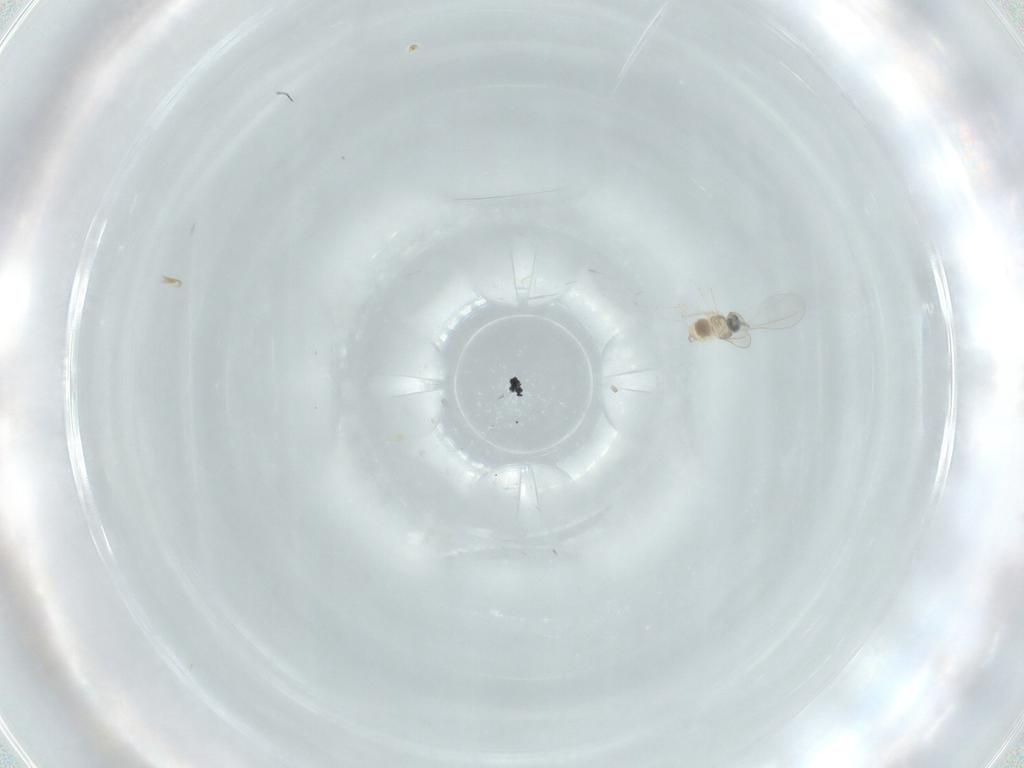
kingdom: Animalia
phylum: Arthropoda
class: Insecta
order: Diptera
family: Cecidomyiidae
